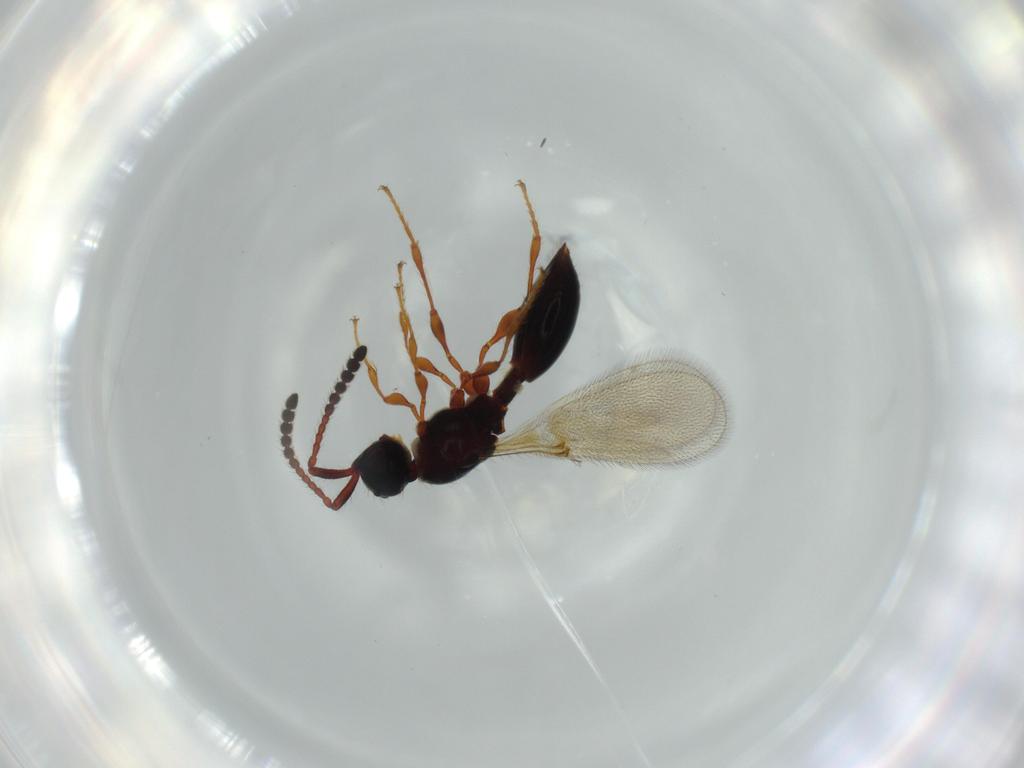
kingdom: Animalia
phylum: Arthropoda
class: Insecta
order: Hymenoptera
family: Diapriidae
